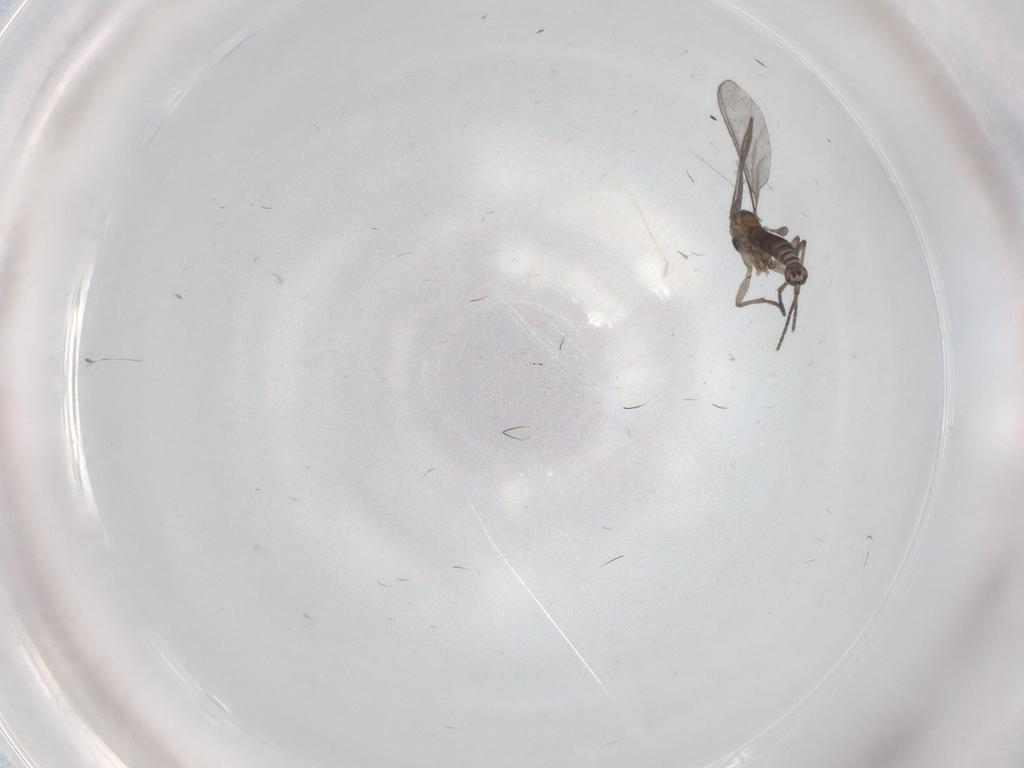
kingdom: Animalia
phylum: Arthropoda
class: Insecta
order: Diptera
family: Sciaridae
